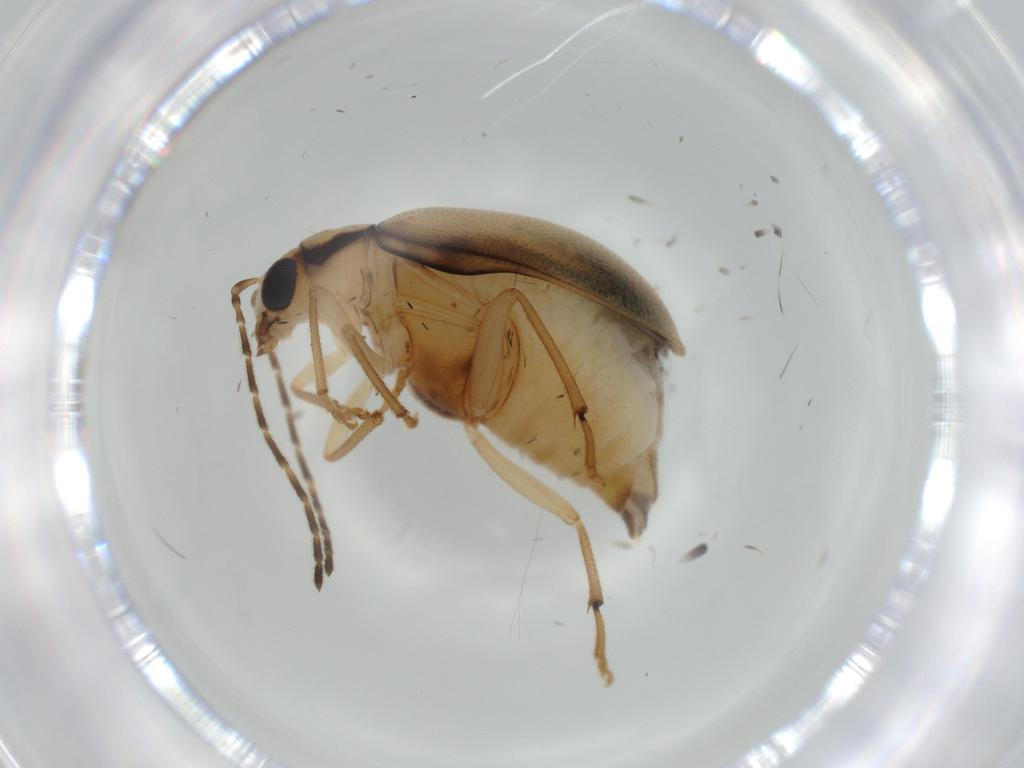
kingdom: Animalia
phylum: Arthropoda
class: Insecta
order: Coleoptera
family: Chrysomelidae
